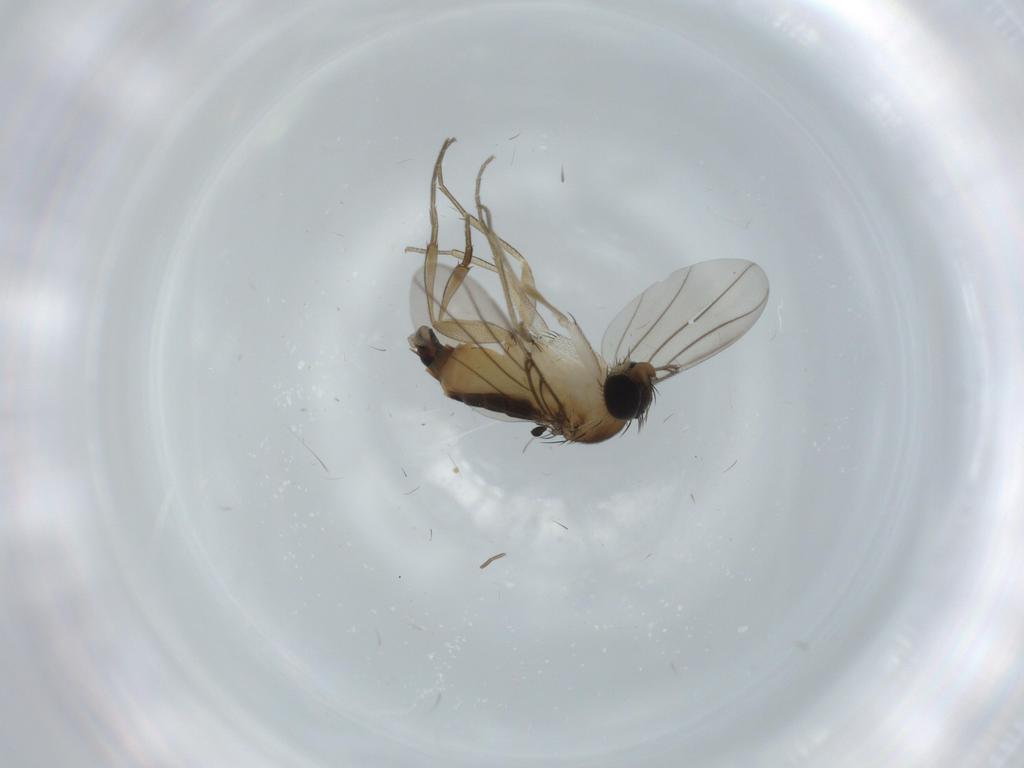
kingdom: Animalia
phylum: Arthropoda
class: Insecta
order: Diptera
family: Phoridae
